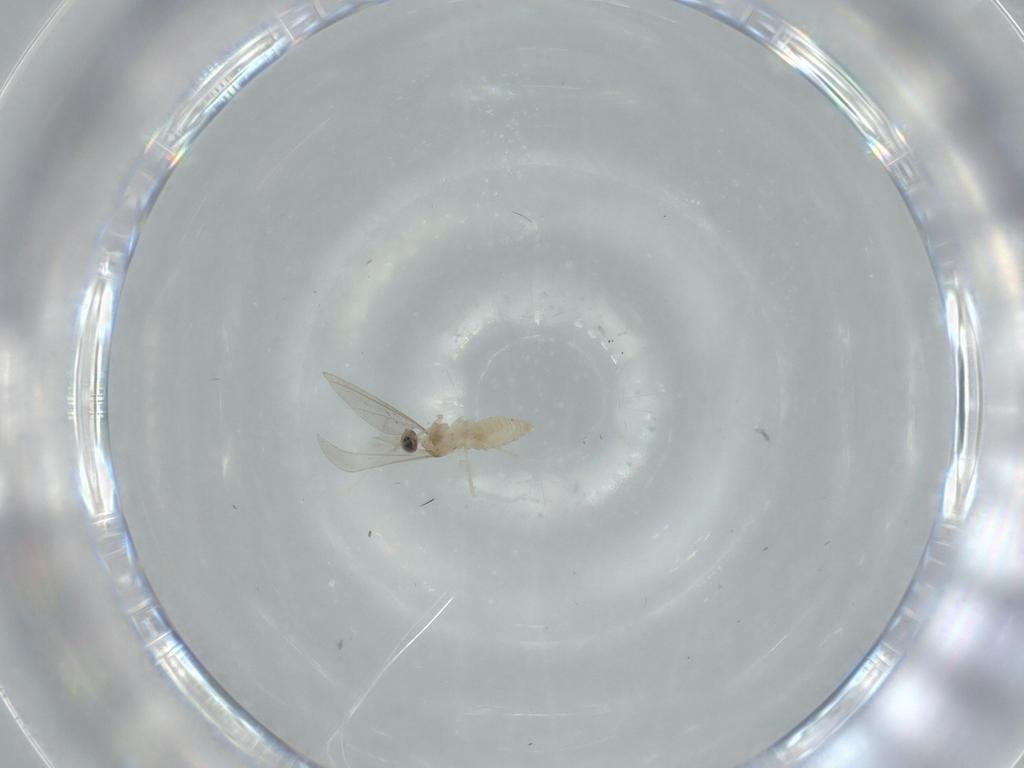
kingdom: Animalia
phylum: Arthropoda
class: Insecta
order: Diptera
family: Cecidomyiidae
